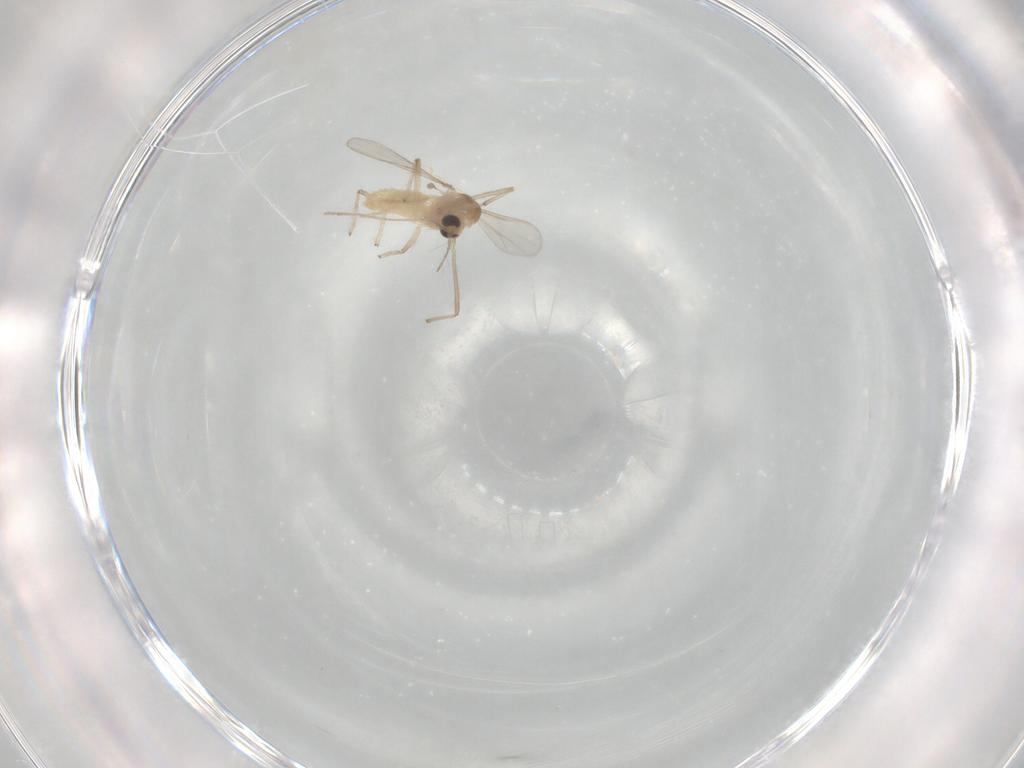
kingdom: Animalia
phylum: Arthropoda
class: Insecta
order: Diptera
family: Chironomidae
